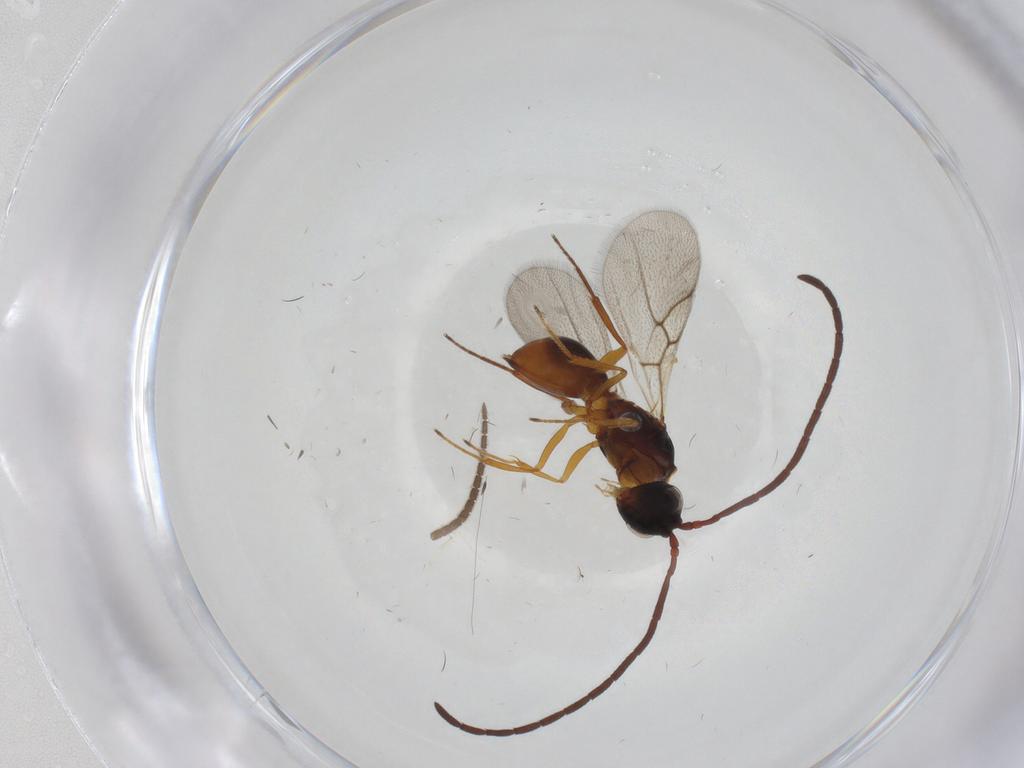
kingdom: Animalia
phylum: Arthropoda
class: Insecta
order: Hymenoptera
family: Figitidae
